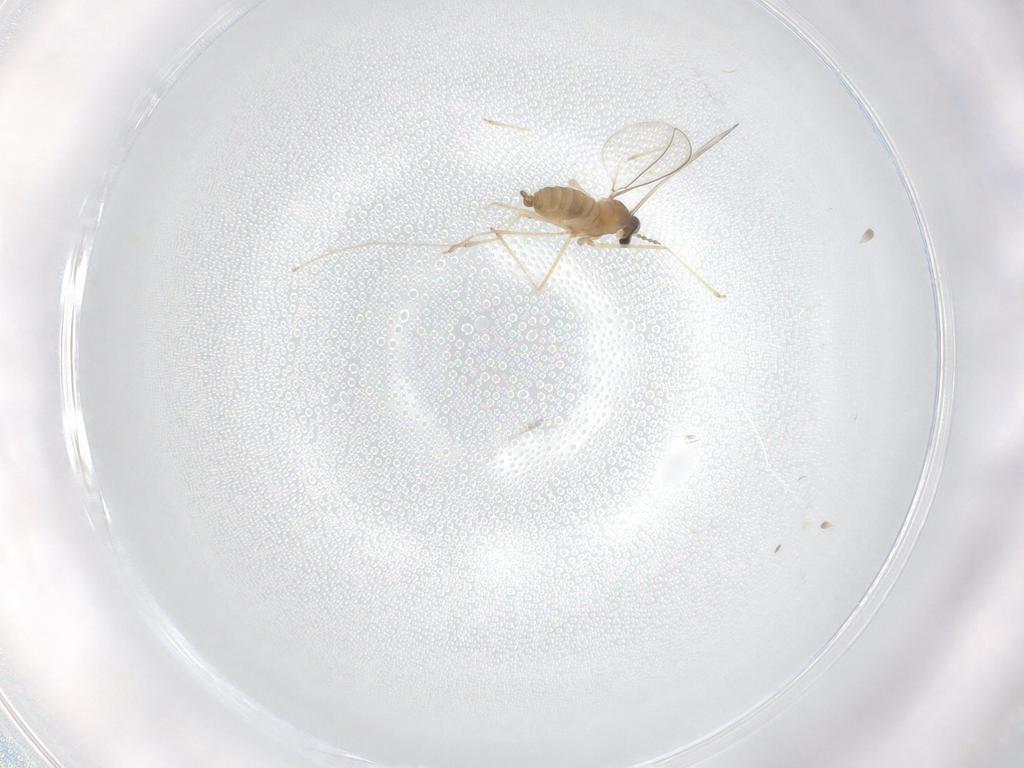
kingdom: Animalia
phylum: Arthropoda
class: Insecta
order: Diptera
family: Cecidomyiidae
